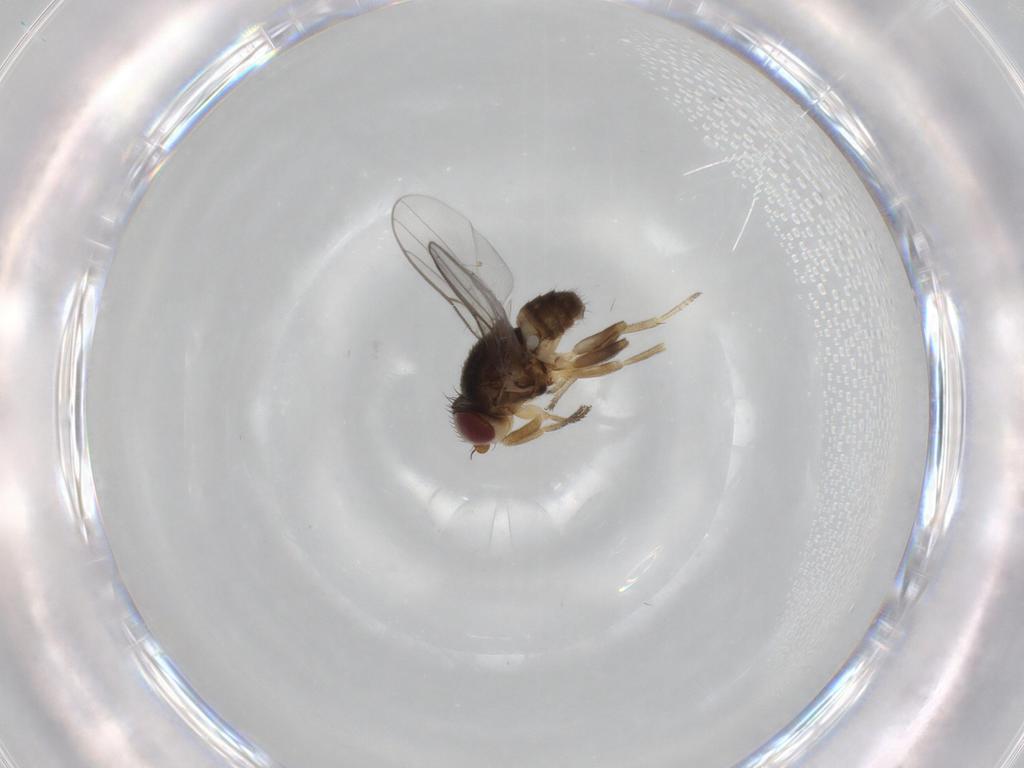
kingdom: Animalia
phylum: Arthropoda
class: Insecta
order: Diptera
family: Chloropidae
